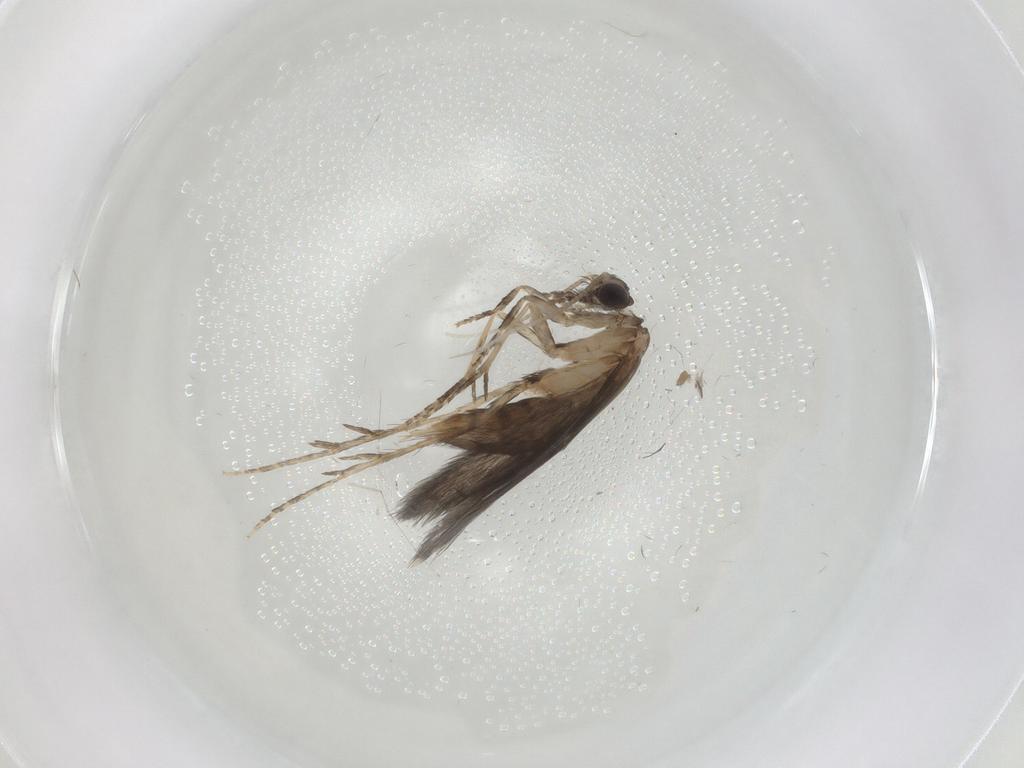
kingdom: Animalia
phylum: Arthropoda
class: Insecta
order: Trichoptera
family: Hydroptilidae
